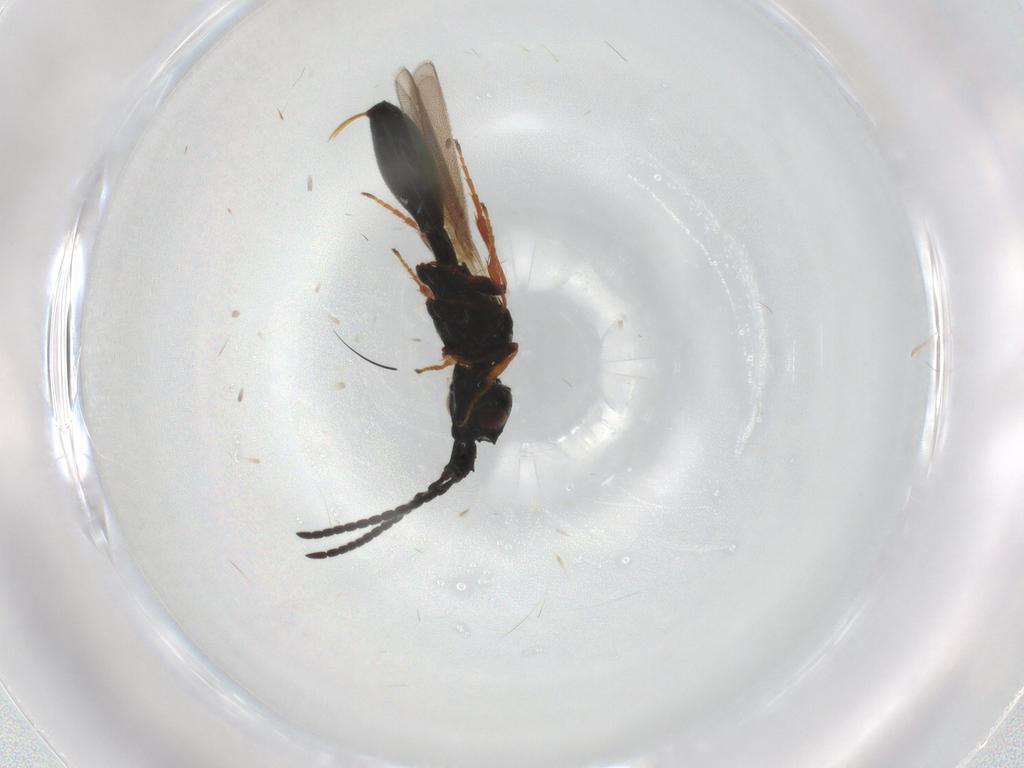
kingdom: Animalia
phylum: Arthropoda
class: Insecta
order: Hymenoptera
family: Diapriidae
